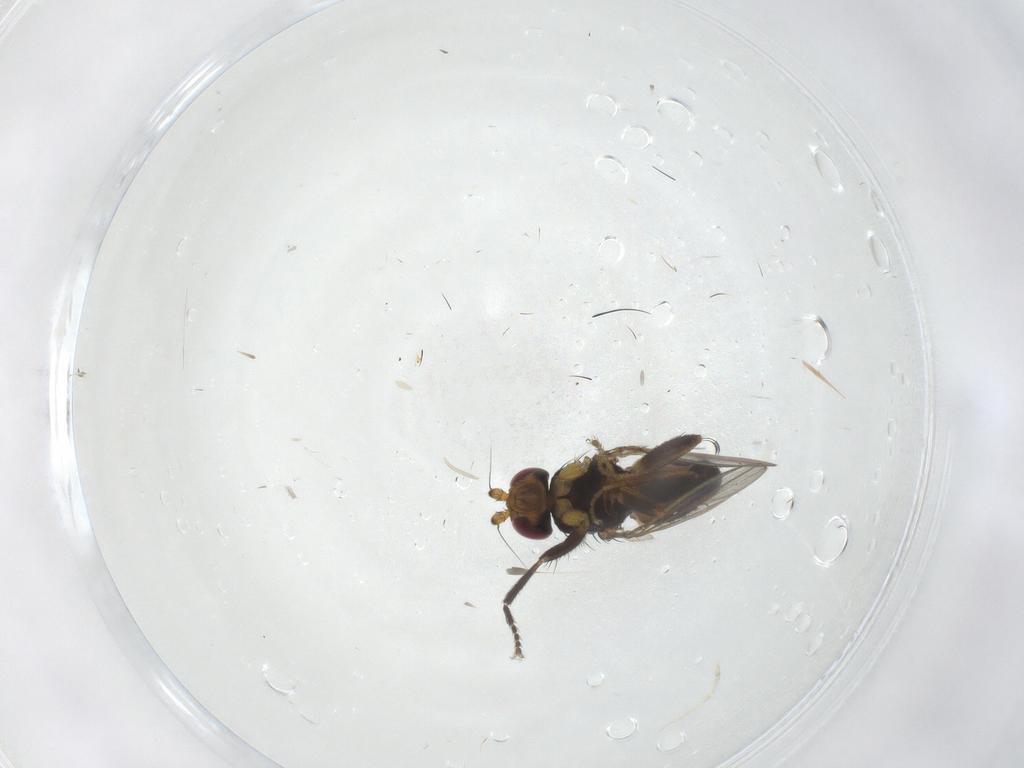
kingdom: Animalia
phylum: Arthropoda
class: Insecta
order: Diptera
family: Cecidomyiidae
